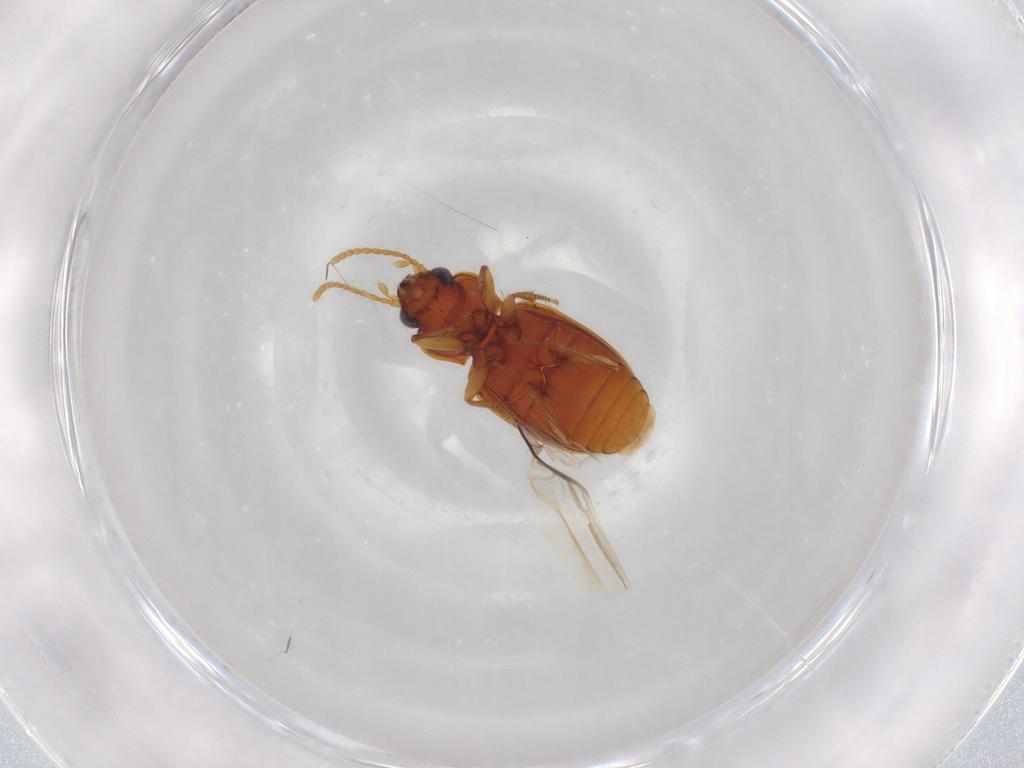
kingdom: Animalia
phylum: Arthropoda
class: Insecta
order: Coleoptera
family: Carabidae
